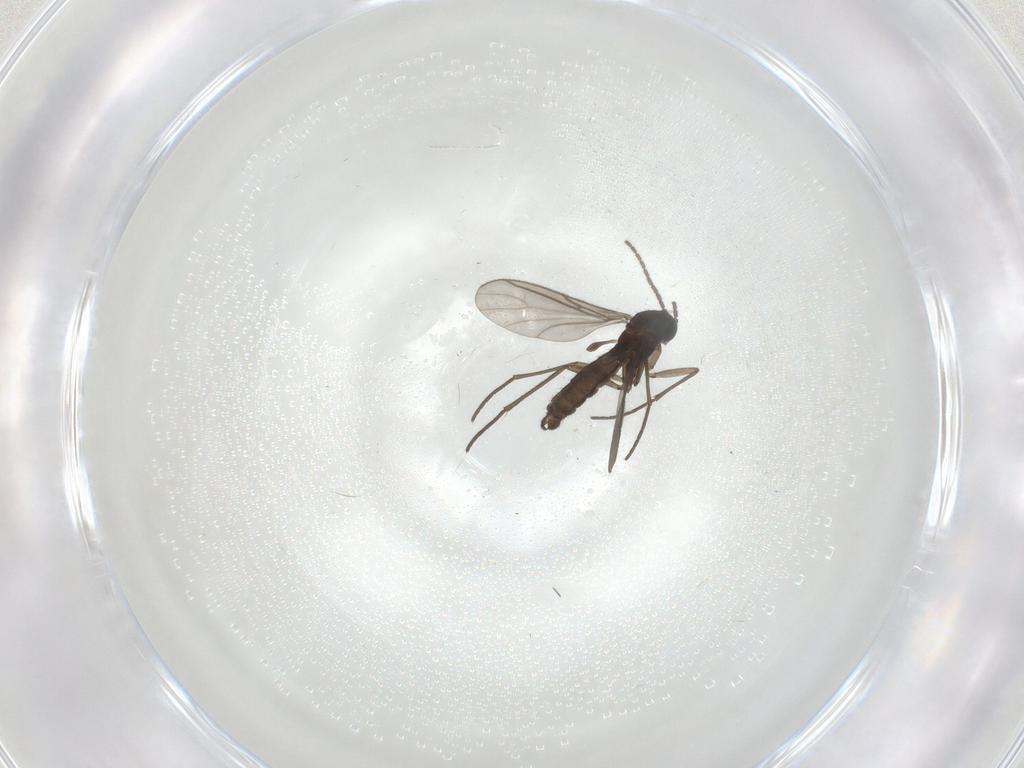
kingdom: Animalia
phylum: Arthropoda
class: Insecta
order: Diptera
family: Sciaridae
